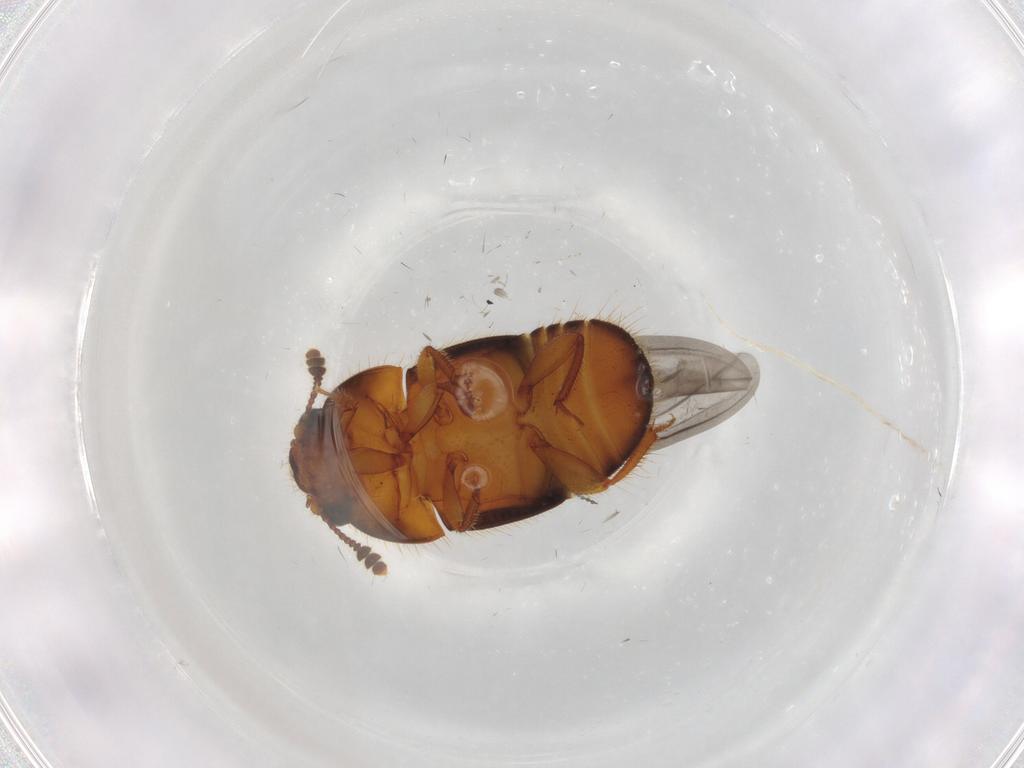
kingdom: Animalia
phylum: Arthropoda
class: Insecta
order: Coleoptera
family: Nitidulidae
